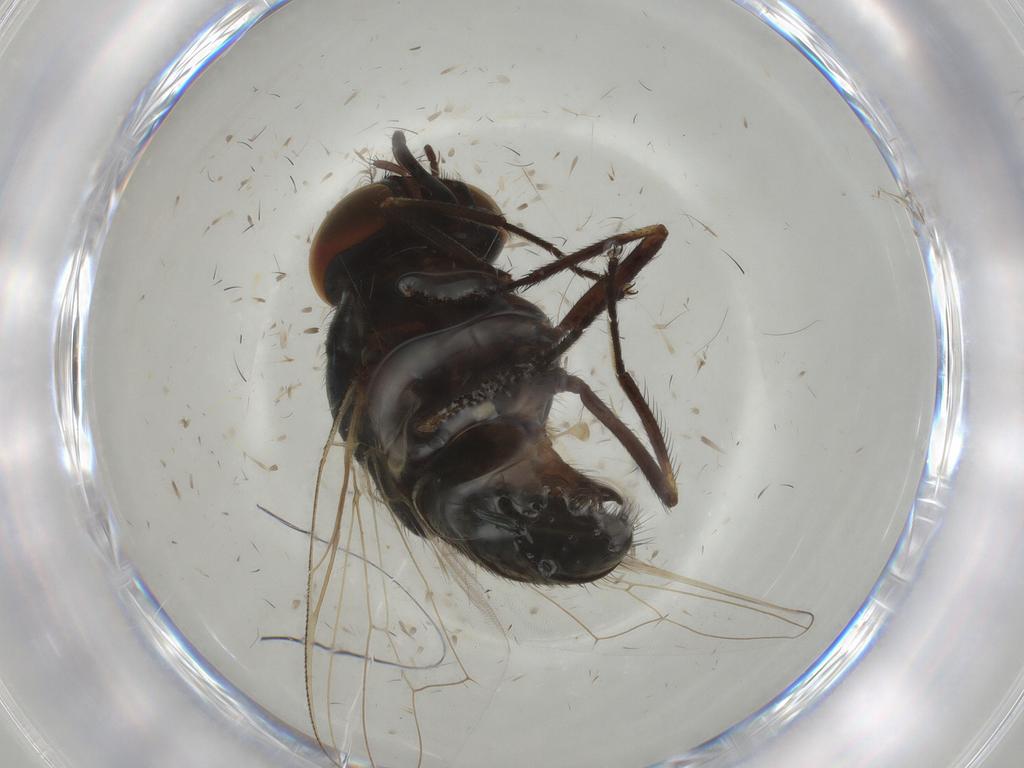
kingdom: Animalia
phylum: Arthropoda
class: Insecta
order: Diptera
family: Muscidae
